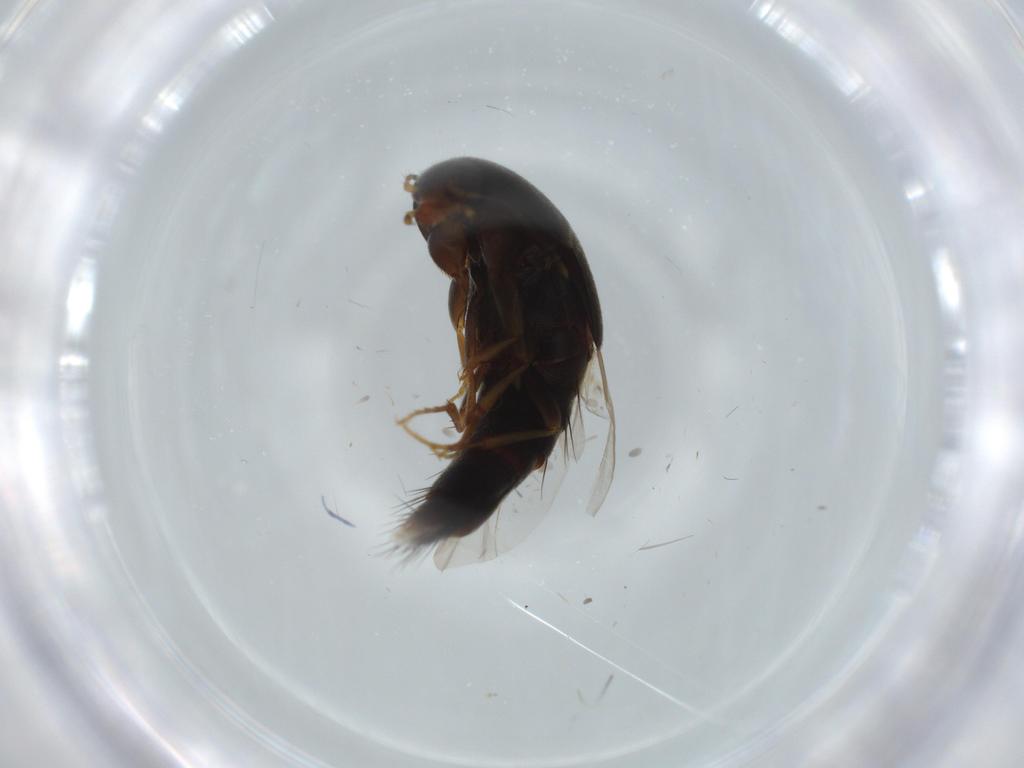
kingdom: Animalia
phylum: Arthropoda
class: Insecta
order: Coleoptera
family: Staphylinidae
